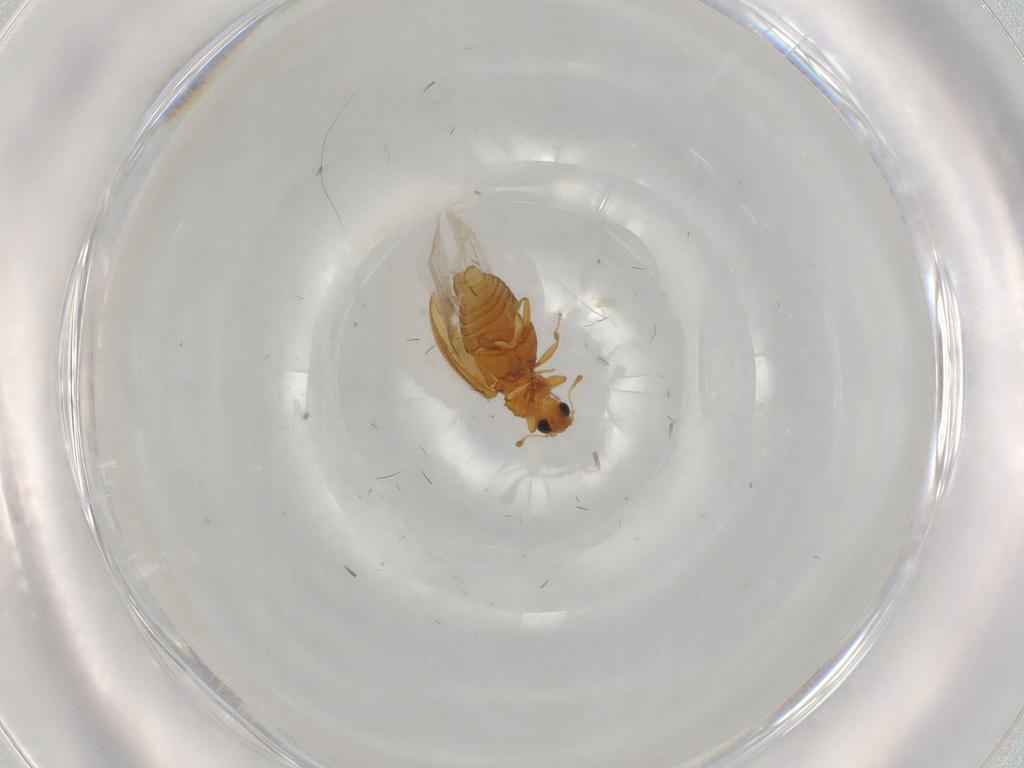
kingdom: Animalia
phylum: Arthropoda
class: Insecta
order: Coleoptera
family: Latridiidae
